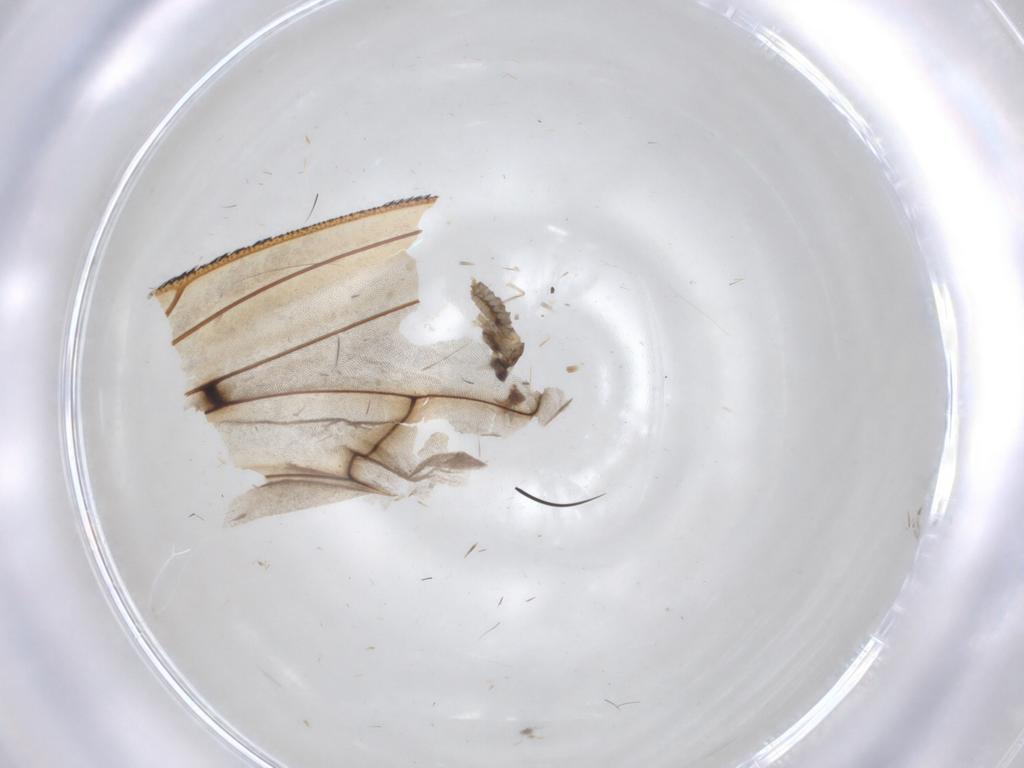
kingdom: Animalia
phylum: Arthropoda
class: Insecta
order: Diptera
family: Cecidomyiidae
